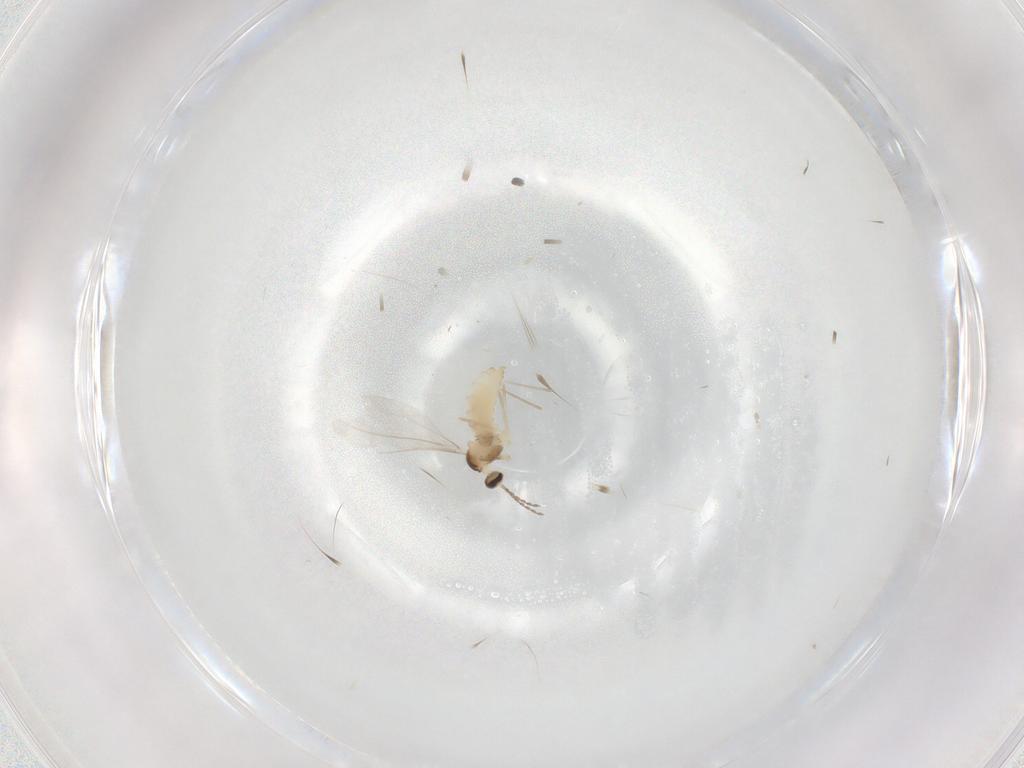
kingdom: Animalia
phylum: Arthropoda
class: Insecta
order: Diptera
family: Cecidomyiidae
